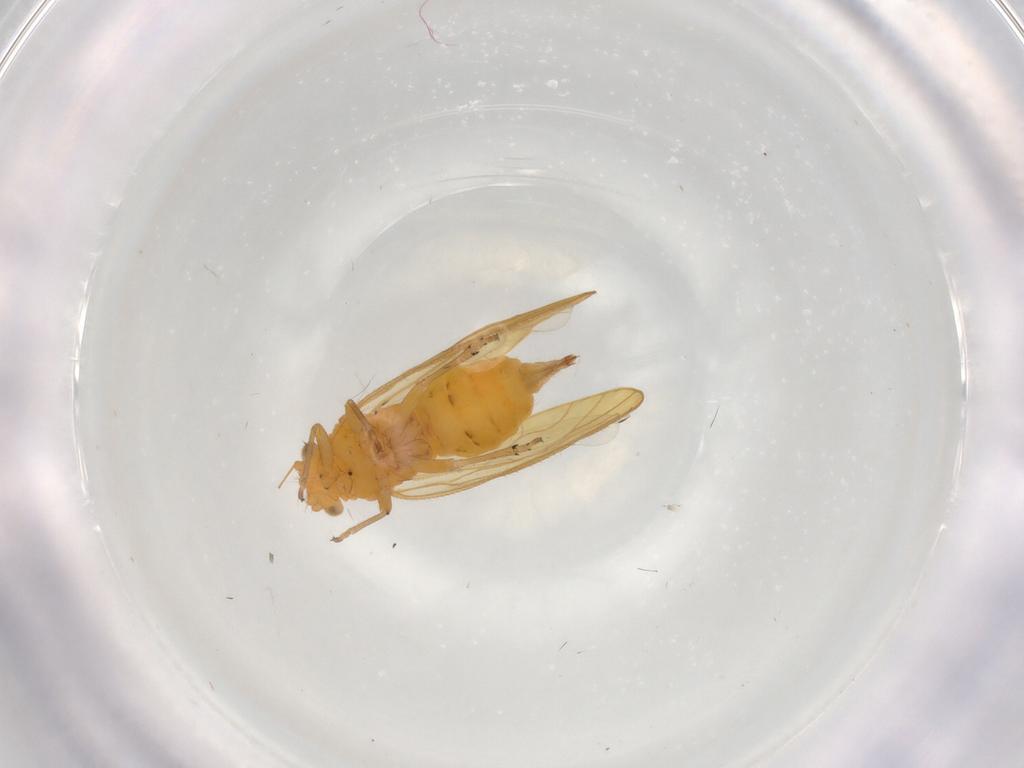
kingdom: Animalia
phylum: Arthropoda
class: Insecta
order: Hemiptera
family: Psyllidae
